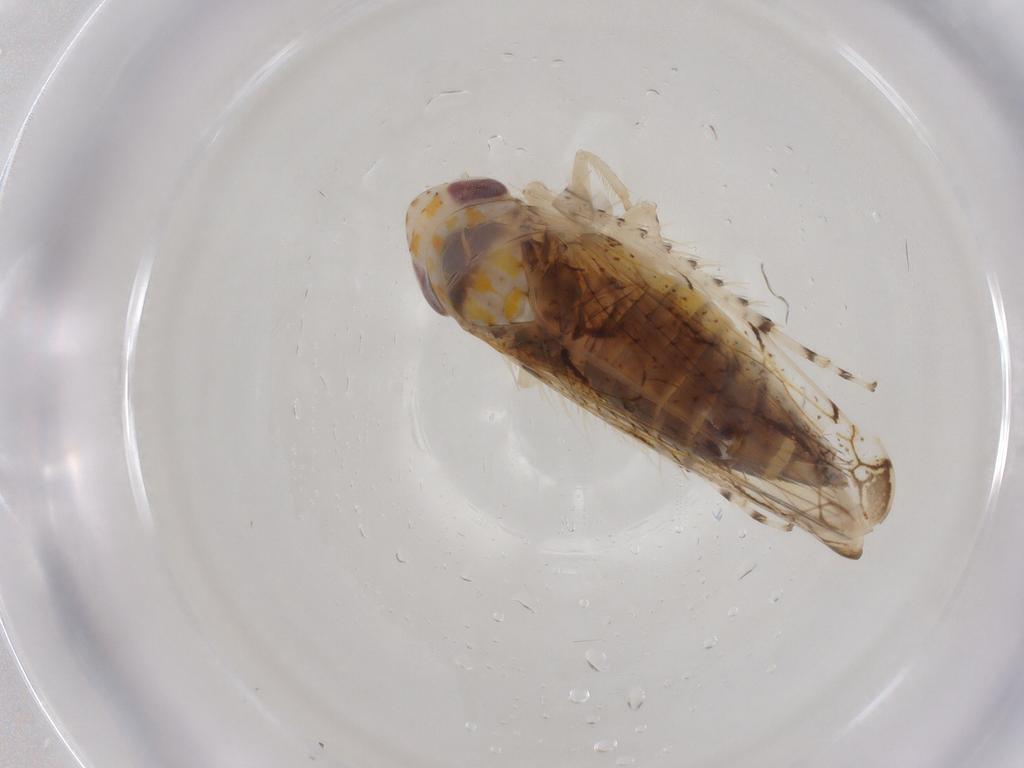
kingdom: Animalia
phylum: Arthropoda
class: Insecta
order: Hemiptera
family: Cicadellidae
